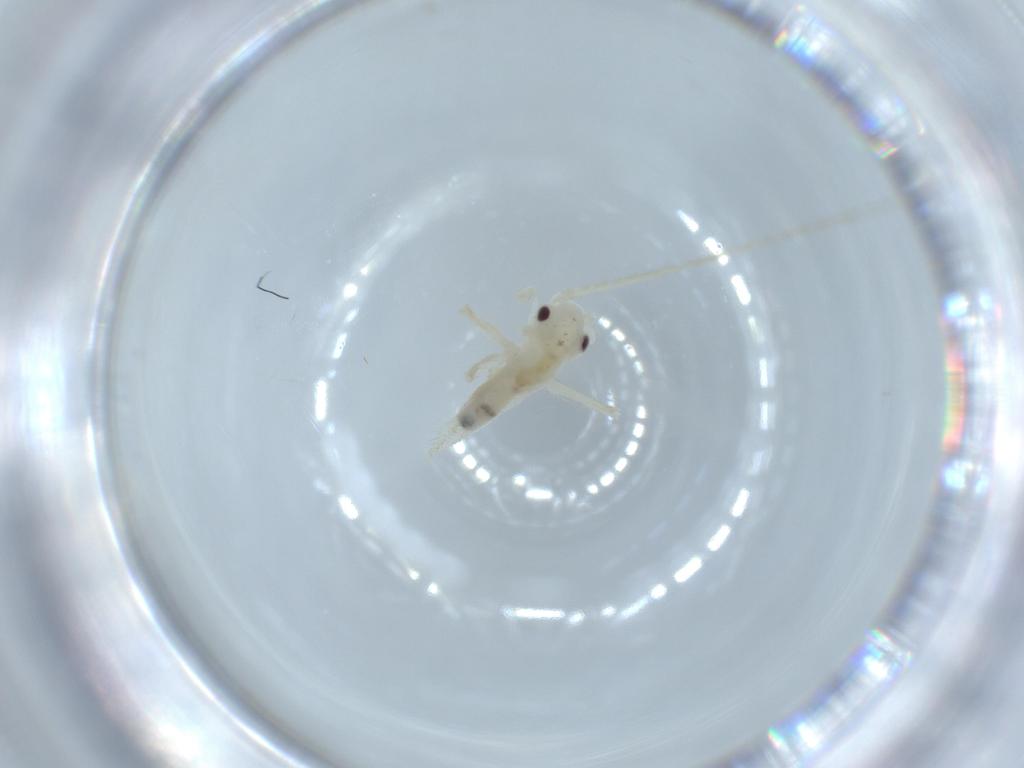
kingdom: Animalia
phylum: Arthropoda
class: Insecta
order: Orthoptera
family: Trigonidiidae
